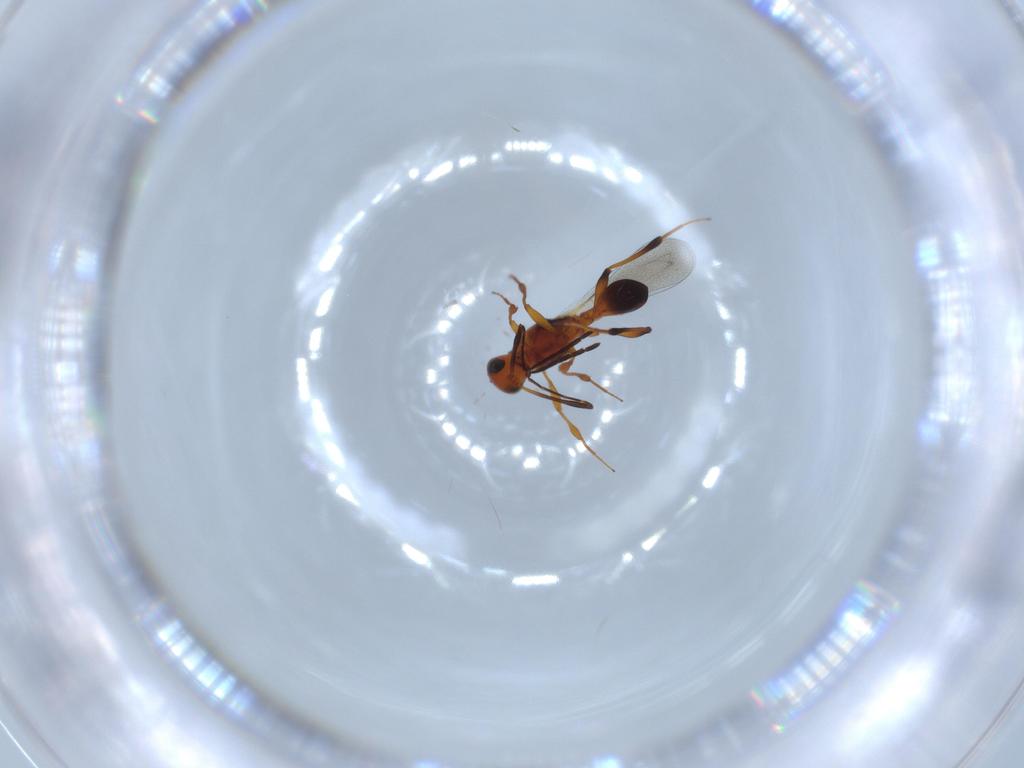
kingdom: Animalia
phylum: Arthropoda
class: Insecta
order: Hymenoptera
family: Platygastridae
